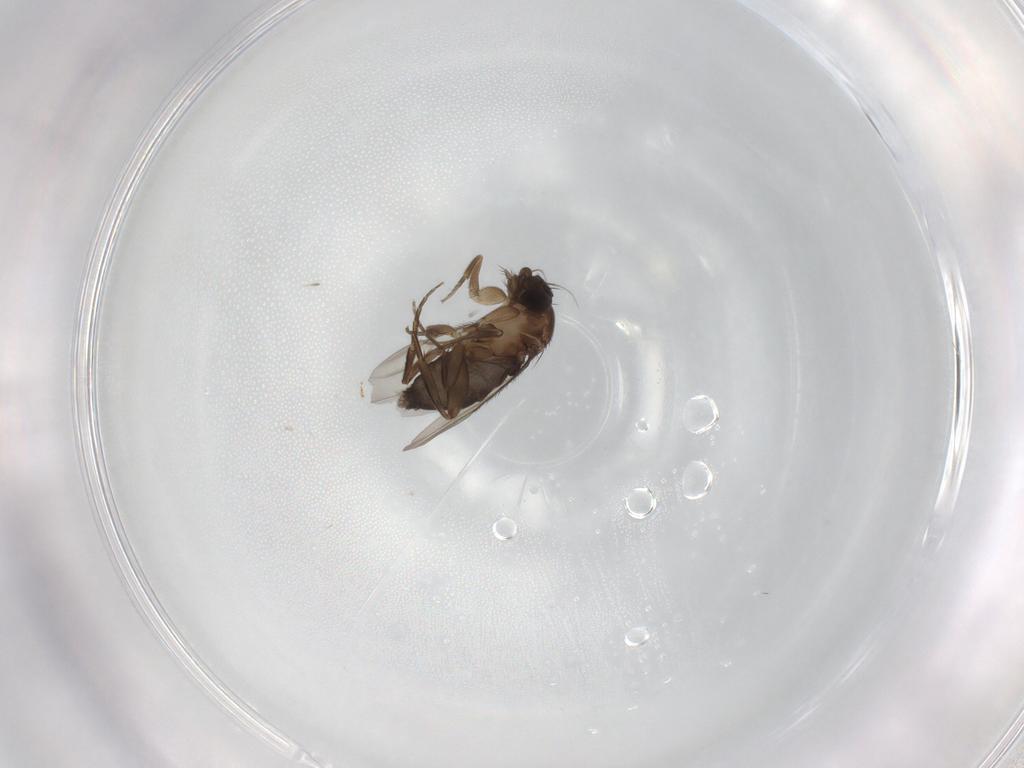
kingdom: Animalia
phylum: Arthropoda
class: Insecta
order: Diptera
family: Phoridae
